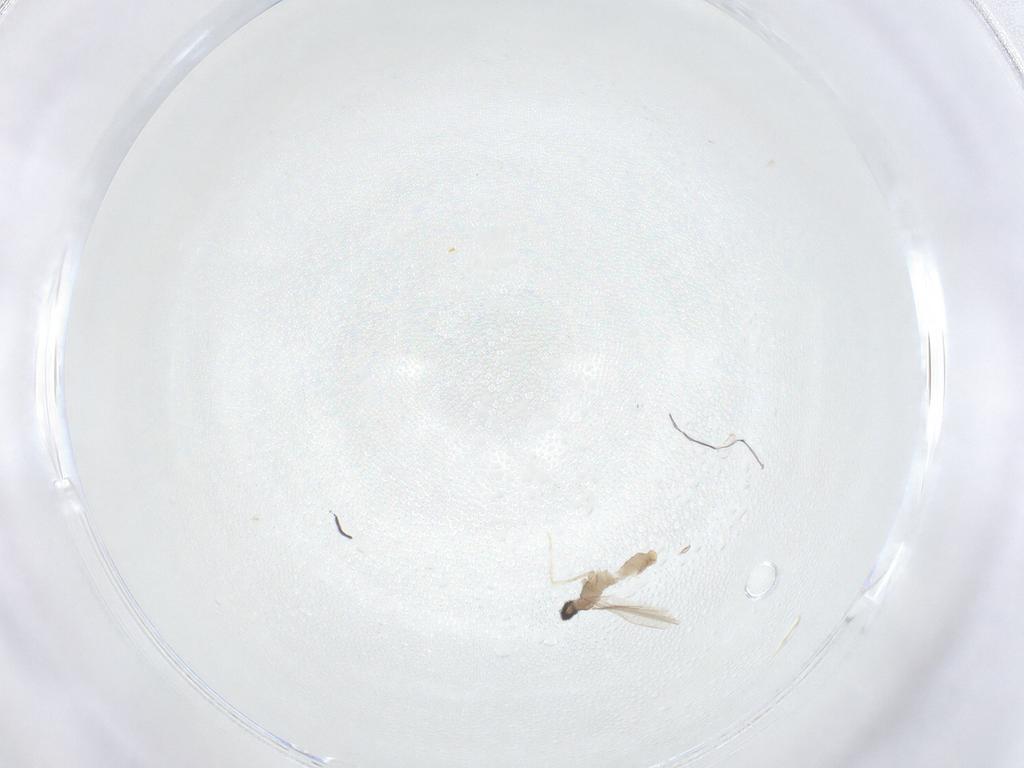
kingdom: Animalia
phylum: Arthropoda
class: Insecta
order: Diptera
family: Cecidomyiidae
